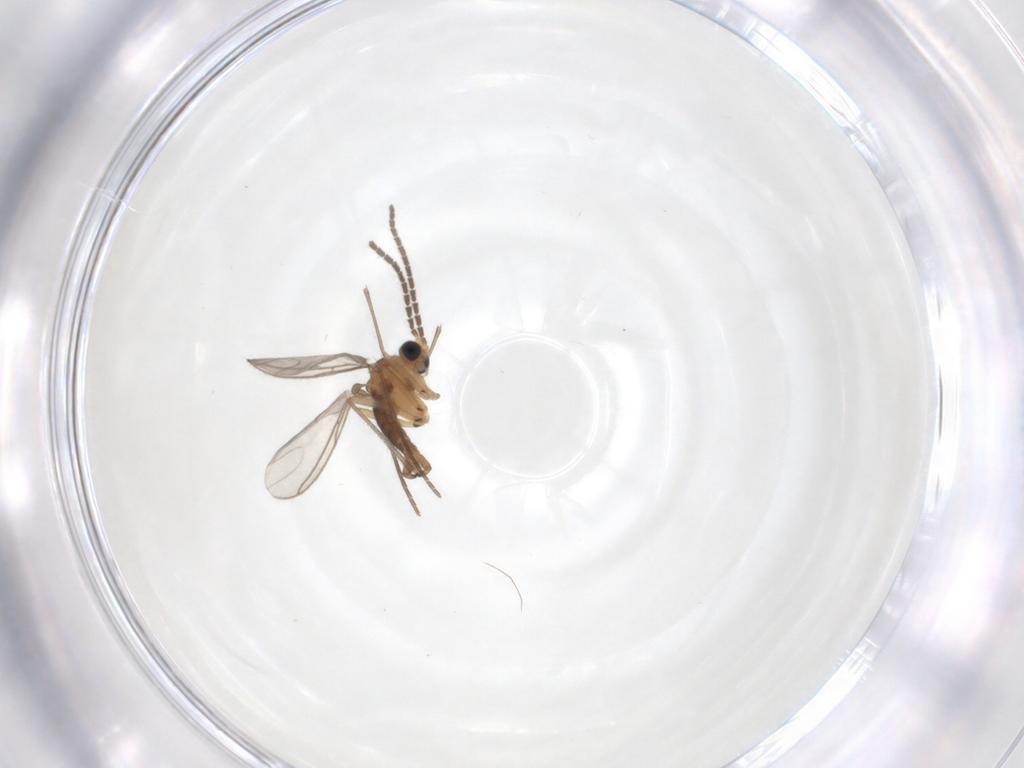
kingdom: Animalia
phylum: Arthropoda
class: Insecta
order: Diptera
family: Sciaridae
